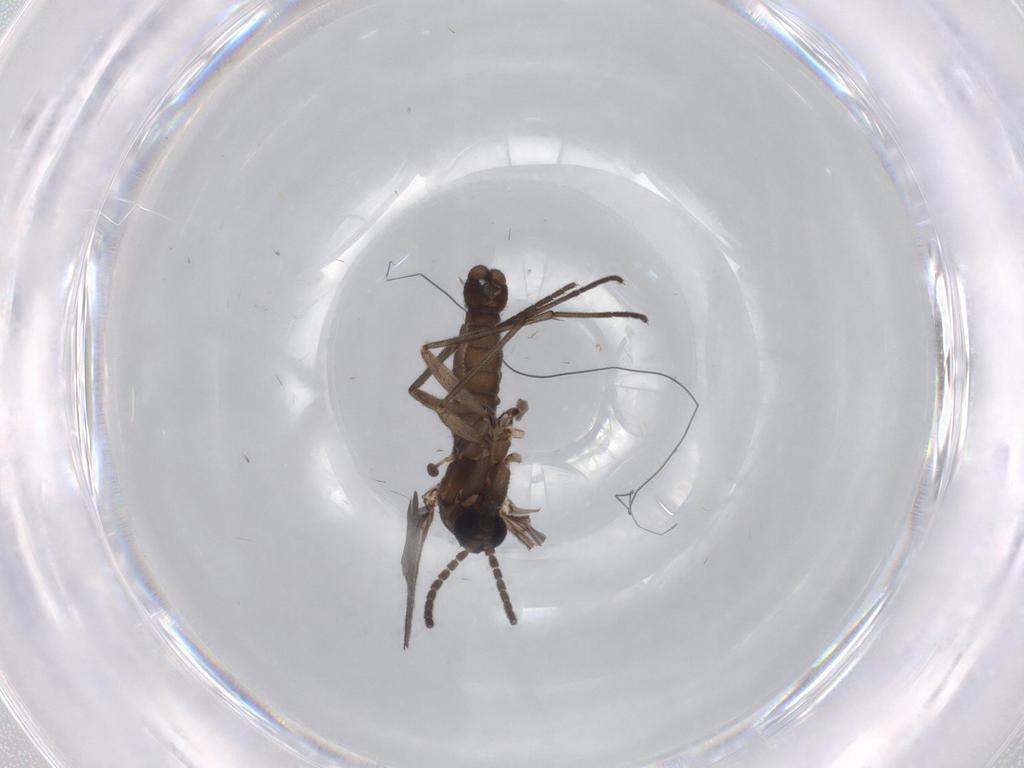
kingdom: Animalia
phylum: Arthropoda
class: Insecta
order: Diptera
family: Sciaridae
